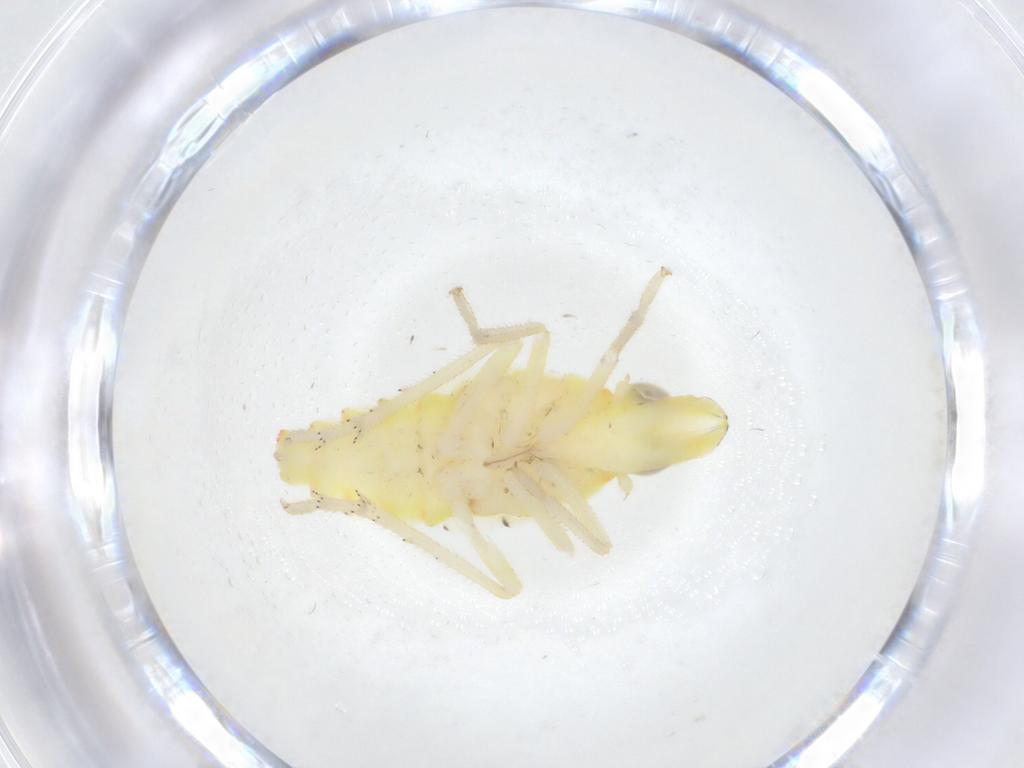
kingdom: Animalia
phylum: Arthropoda
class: Insecta
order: Hemiptera
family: Tropiduchidae
